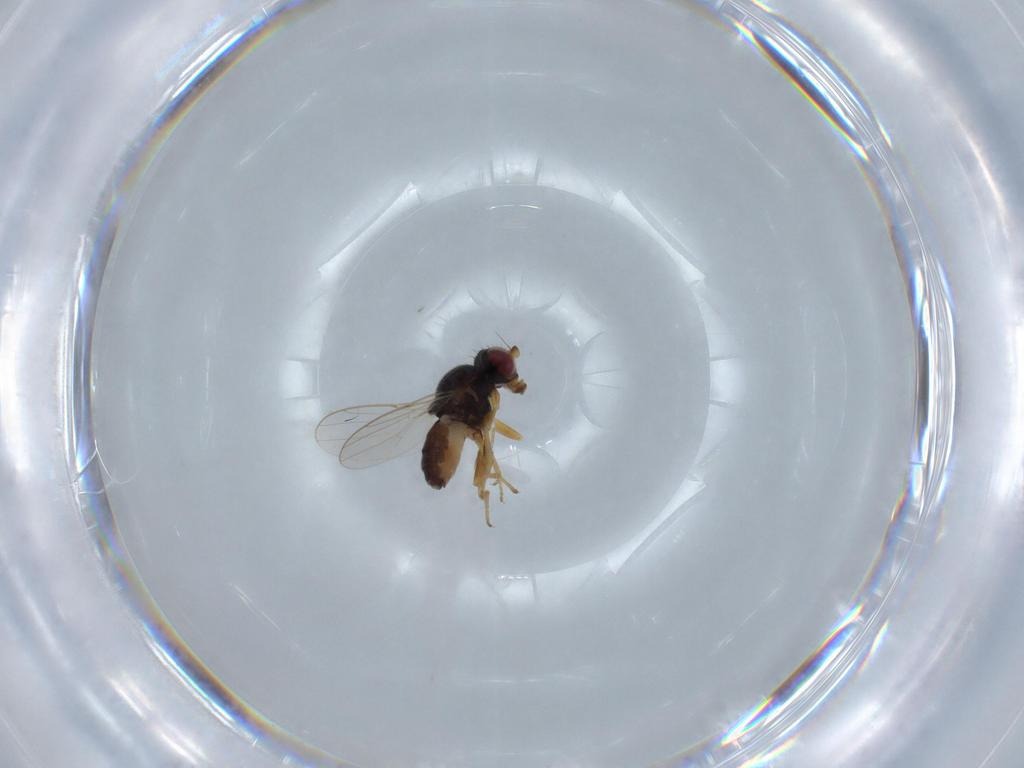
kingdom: Animalia
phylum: Arthropoda
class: Insecta
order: Diptera
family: Chloropidae
